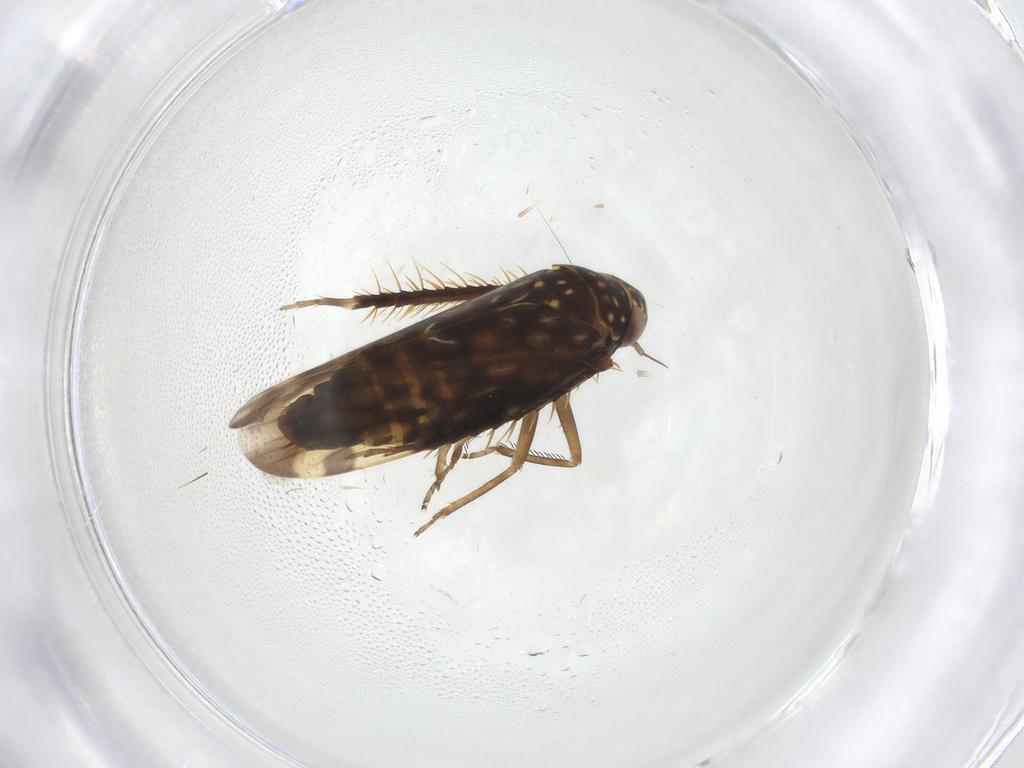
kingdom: Animalia
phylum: Arthropoda
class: Insecta
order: Hemiptera
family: Cicadellidae
